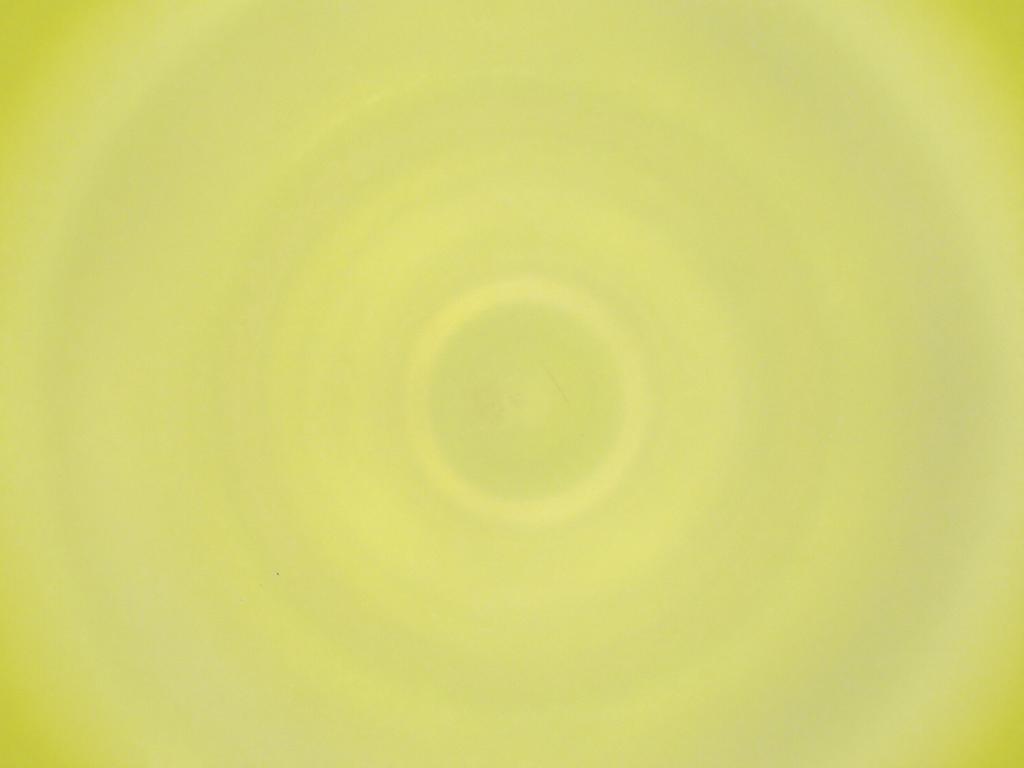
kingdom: Animalia
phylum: Arthropoda
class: Insecta
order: Diptera
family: Cecidomyiidae
